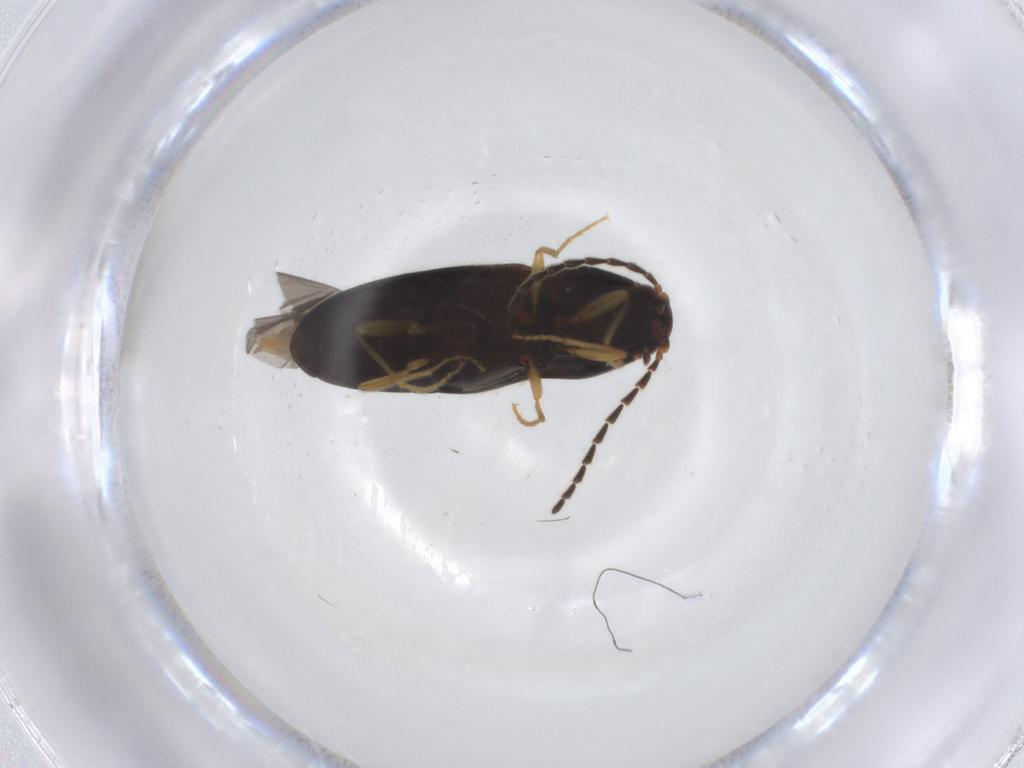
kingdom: Animalia
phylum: Arthropoda
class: Insecta
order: Coleoptera
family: Elateridae
